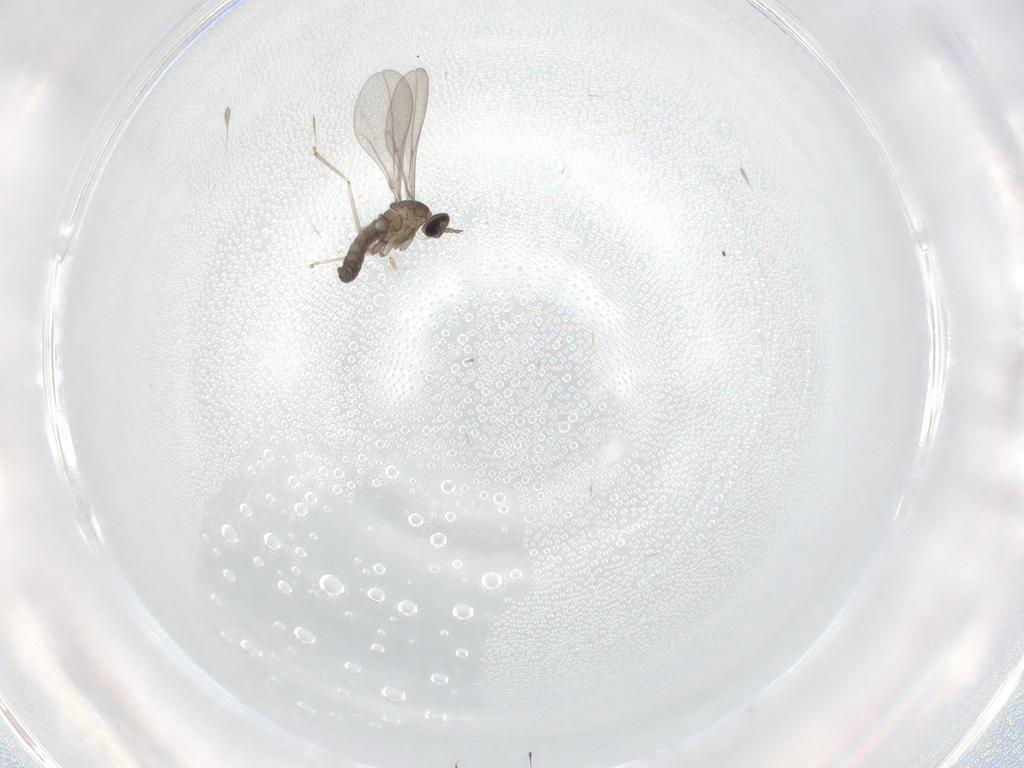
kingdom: Animalia
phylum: Arthropoda
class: Insecta
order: Diptera
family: Cecidomyiidae
